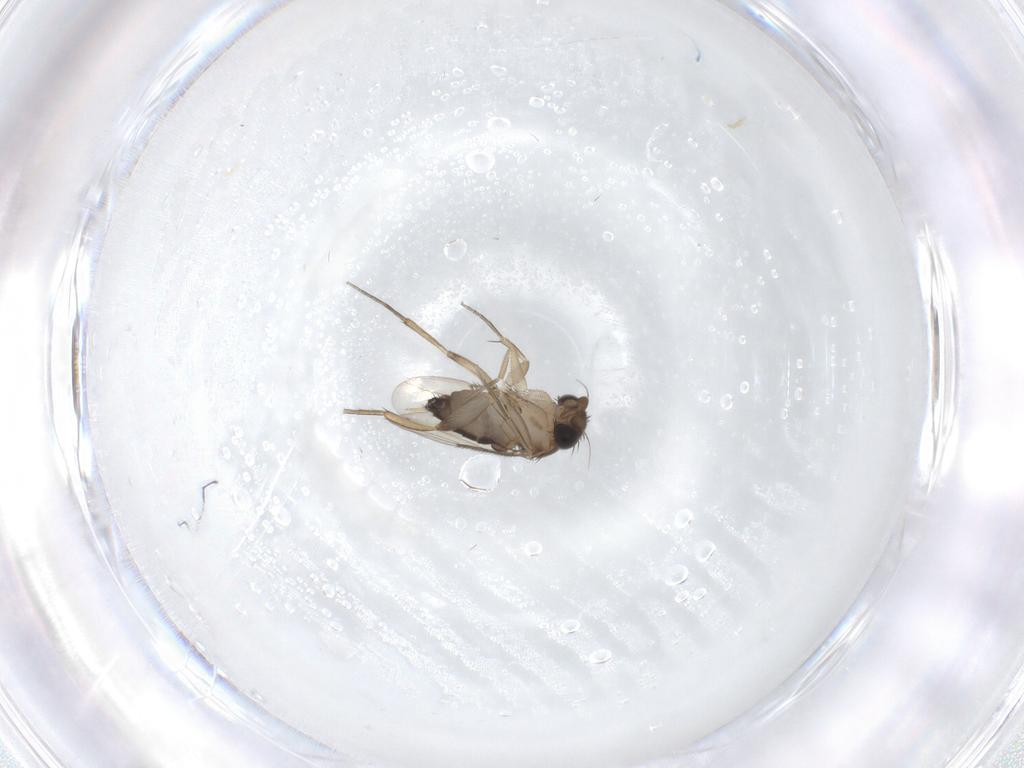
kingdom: Animalia
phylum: Arthropoda
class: Insecta
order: Diptera
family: Phoridae
